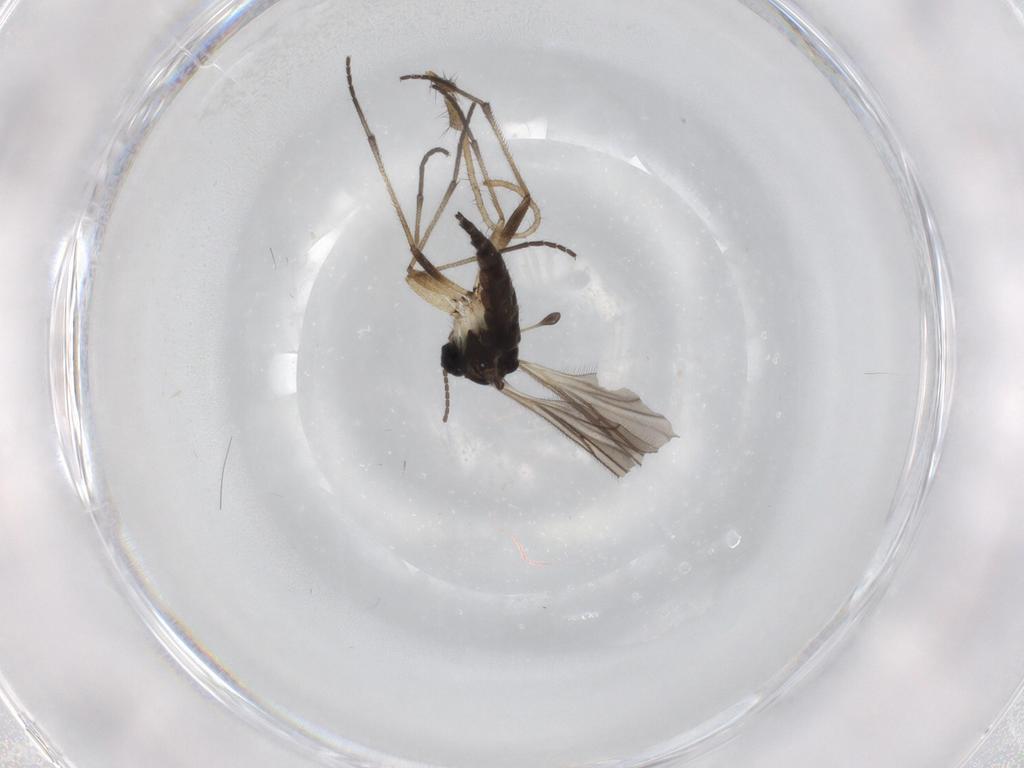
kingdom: Animalia
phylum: Arthropoda
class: Insecta
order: Diptera
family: Sciaridae
